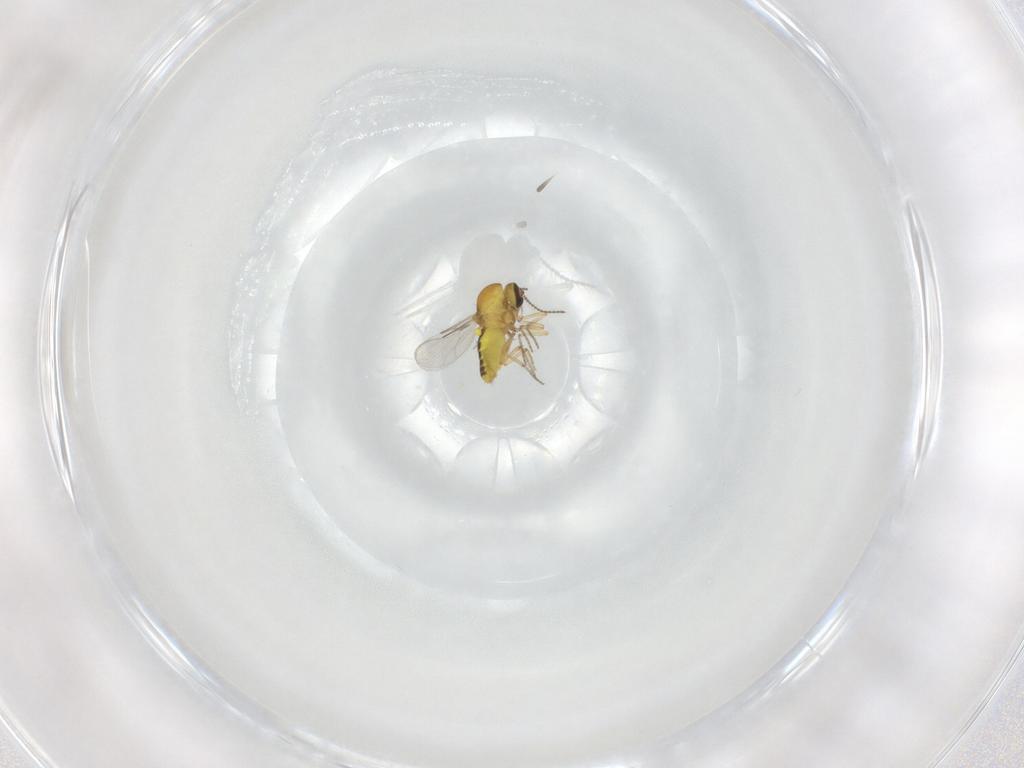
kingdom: Animalia
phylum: Arthropoda
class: Insecta
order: Diptera
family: Ceratopogonidae
